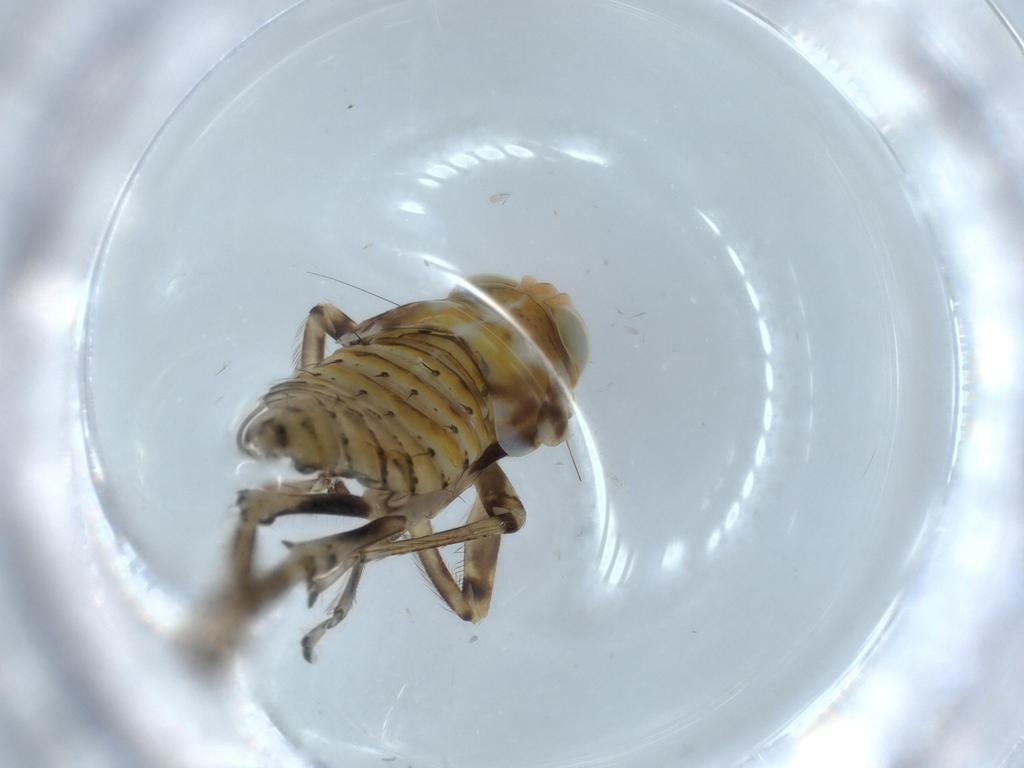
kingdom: Animalia
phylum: Arthropoda
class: Insecta
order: Hemiptera
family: Cicadellidae
